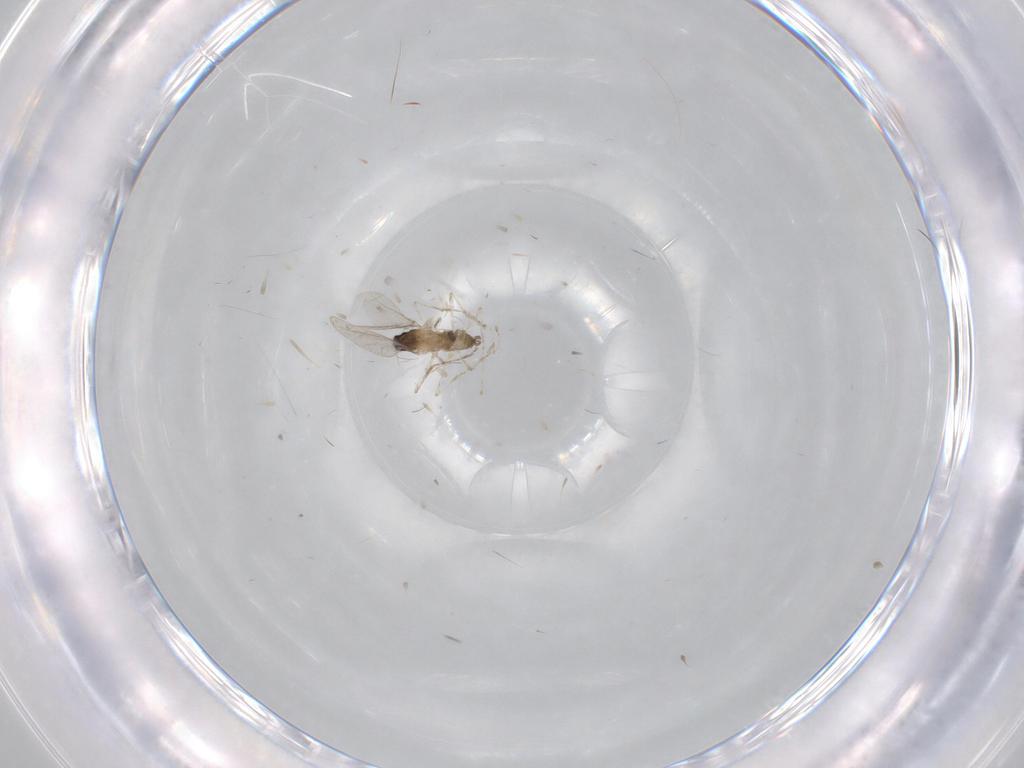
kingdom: Animalia
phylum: Arthropoda
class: Insecta
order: Diptera
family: Cecidomyiidae
